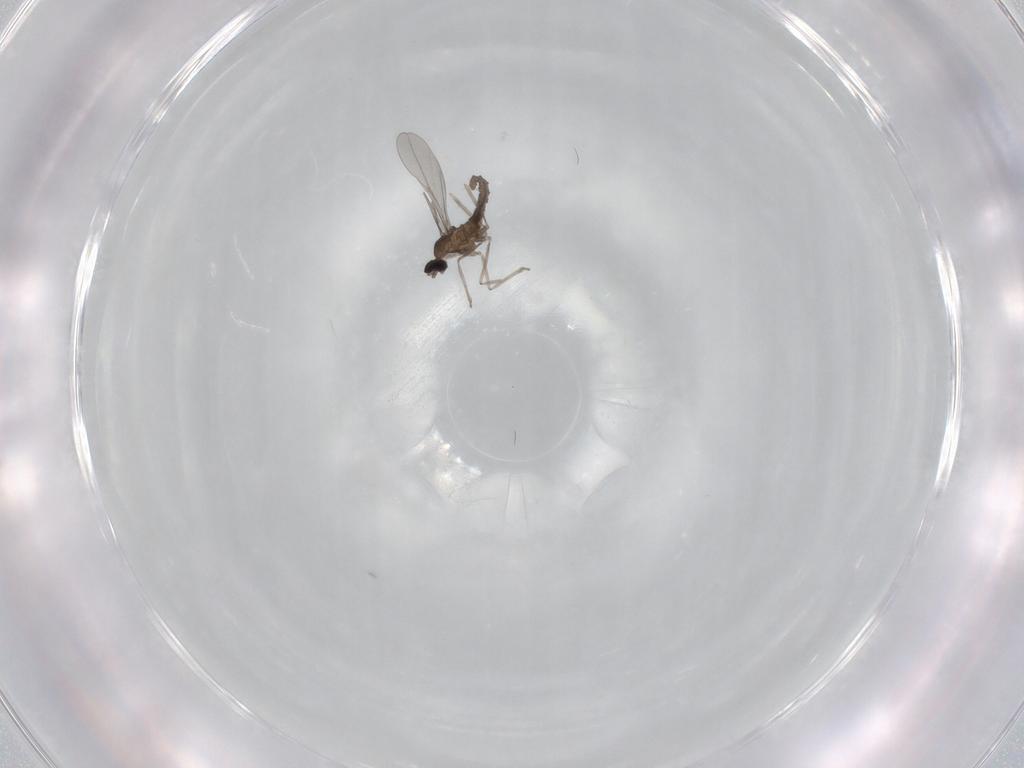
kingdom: Animalia
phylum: Arthropoda
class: Insecta
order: Diptera
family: Cecidomyiidae
